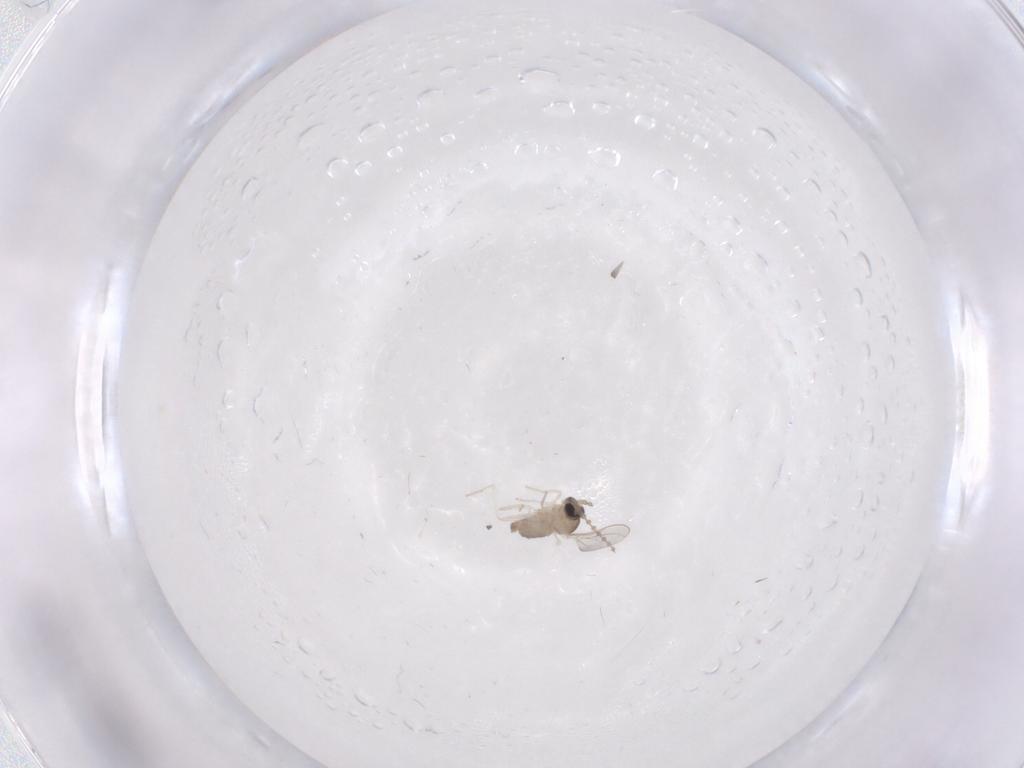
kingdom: Animalia
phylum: Arthropoda
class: Insecta
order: Diptera
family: Cecidomyiidae
